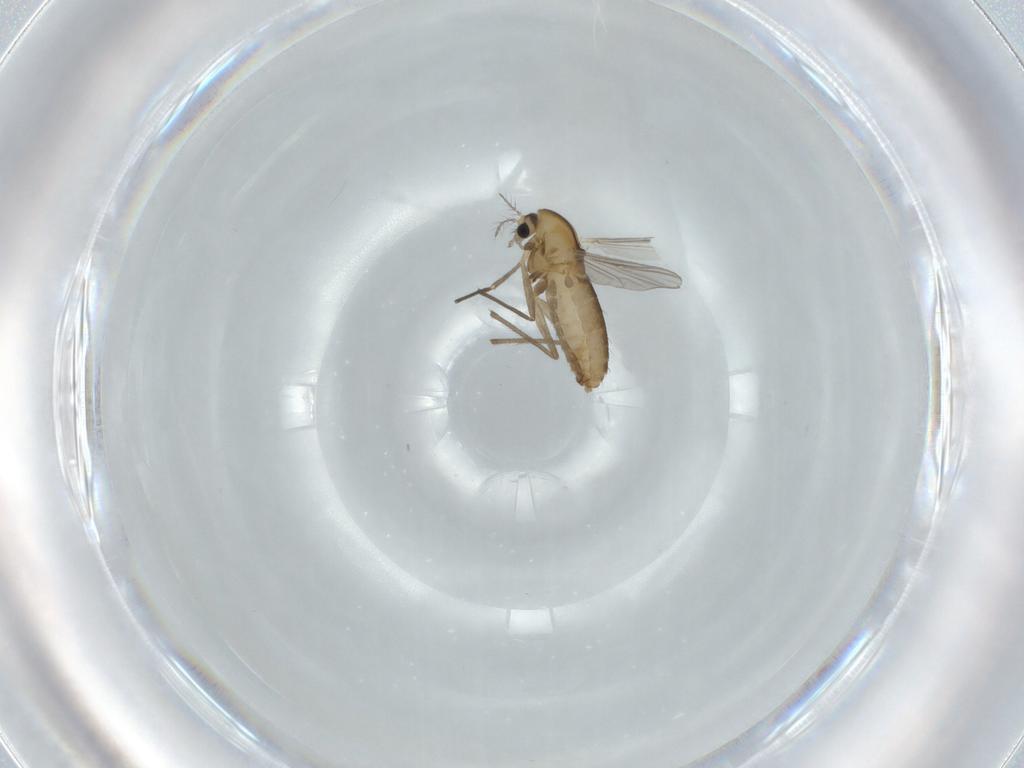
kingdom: Animalia
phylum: Arthropoda
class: Insecta
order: Diptera
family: Chironomidae
